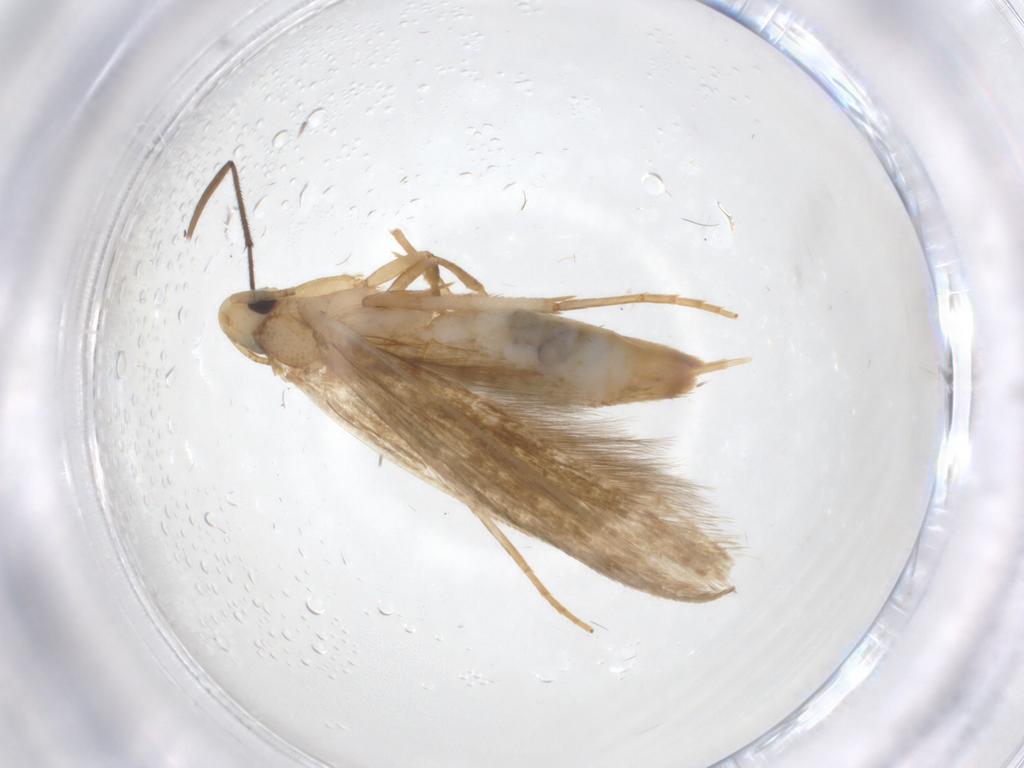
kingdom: Animalia
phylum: Arthropoda
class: Insecta
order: Lepidoptera
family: Tineidae
